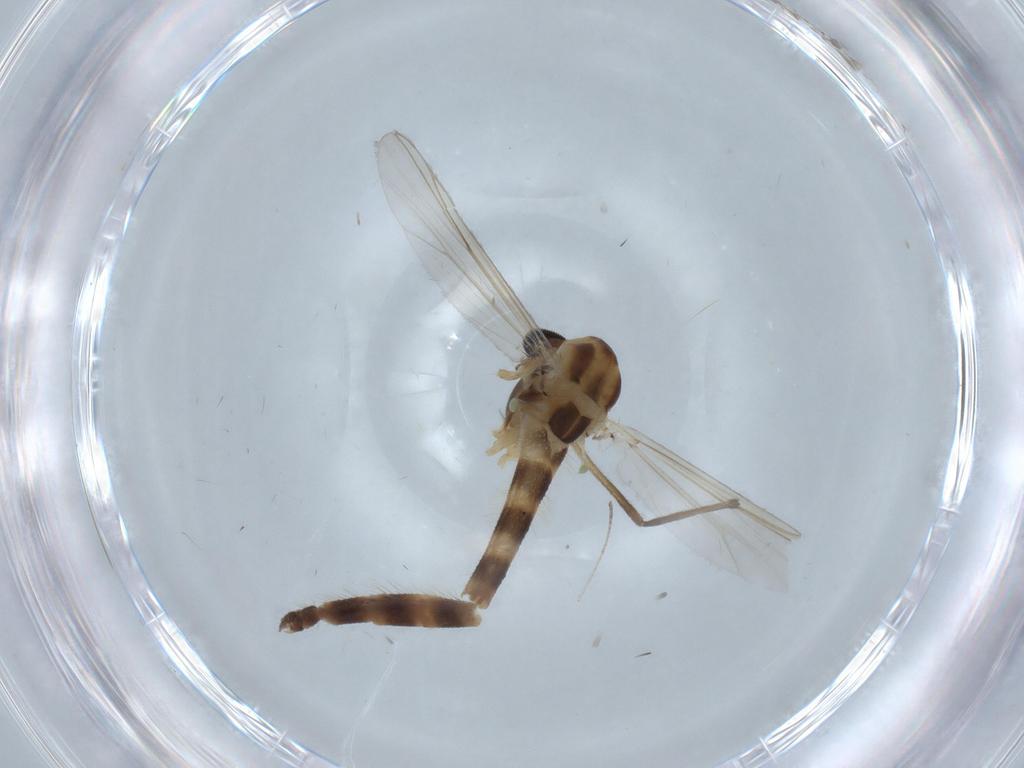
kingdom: Animalia
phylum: Arthropoda
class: Insecta
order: Diptera
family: Chironomidae
